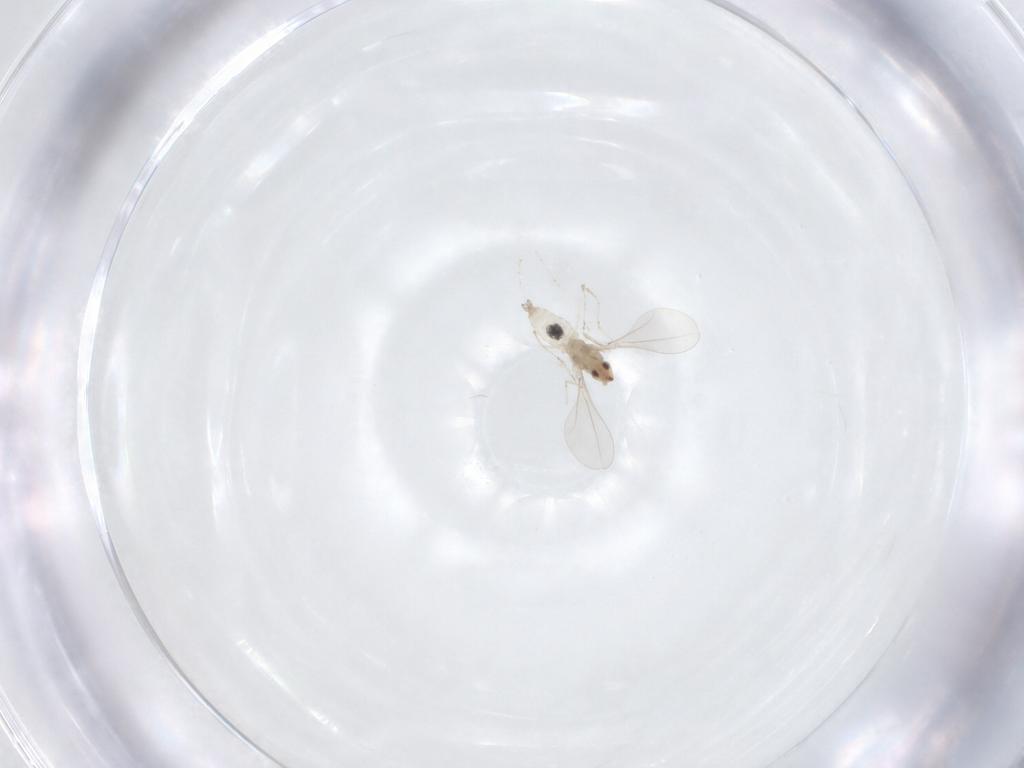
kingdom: Animalia
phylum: Arthropoda
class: Insecta
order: Diptera
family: Cecidomyiidae
